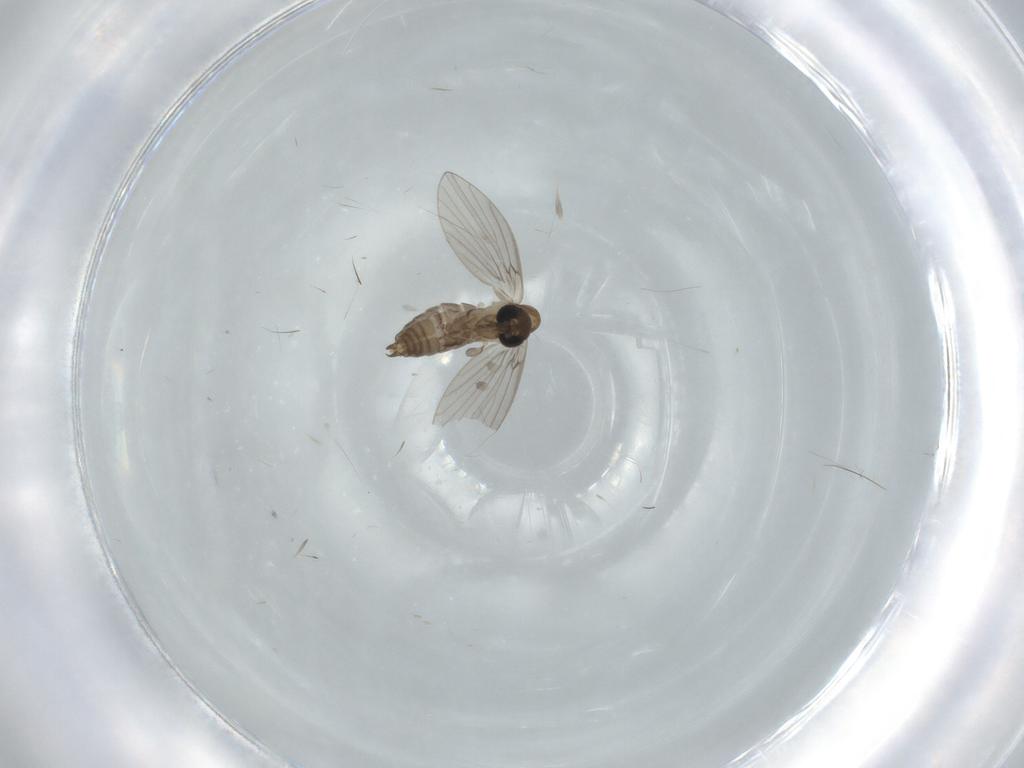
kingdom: Animalia
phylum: Arthropoda
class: Insecta
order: Diptera
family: Psychodidae
